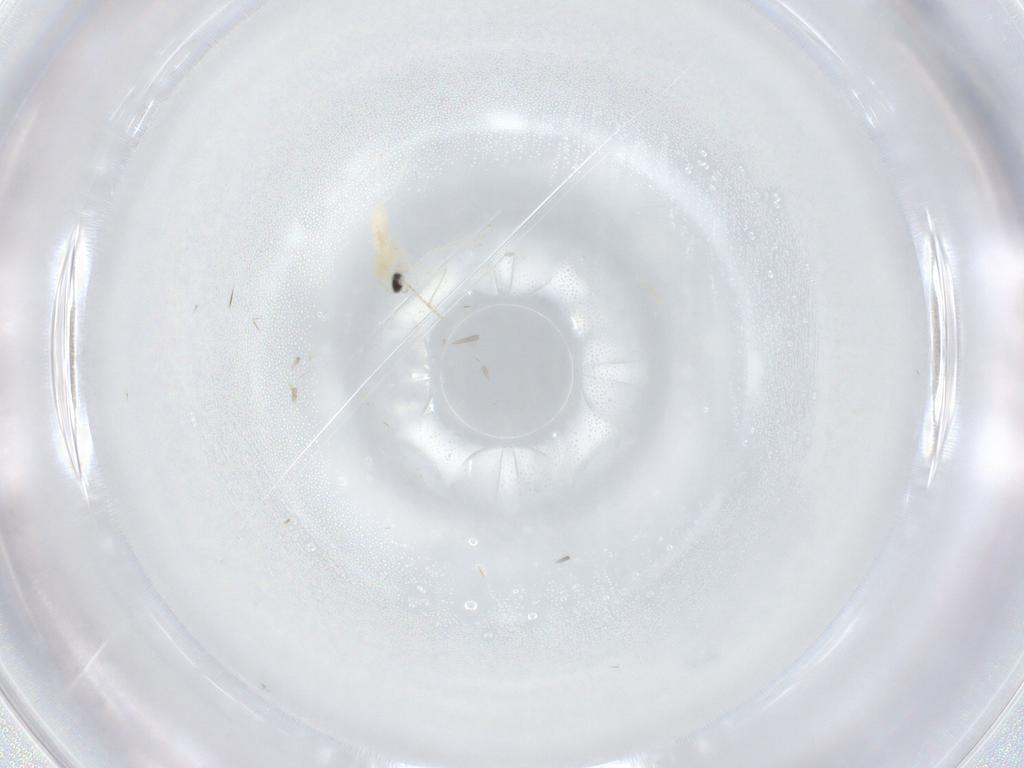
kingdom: Animalia
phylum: Arthropoda
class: Insecta
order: Diptera
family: Cecidomyiidae
